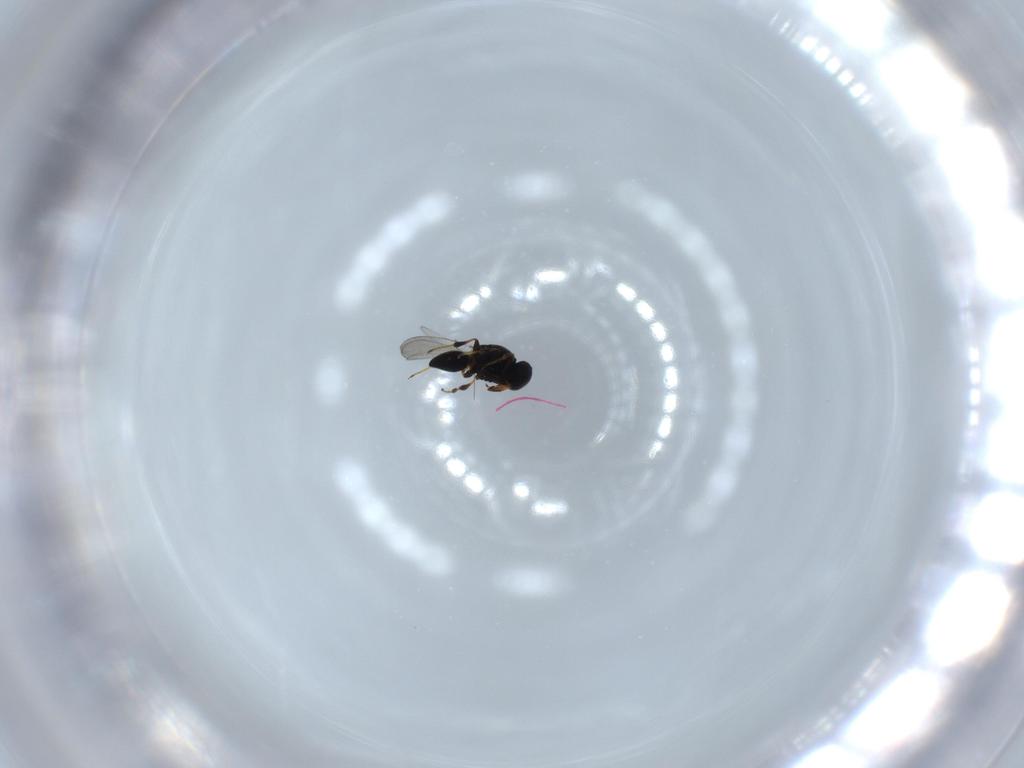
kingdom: Animalia
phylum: Arthropoda
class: Insecta
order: Hymenoptera
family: Platygastridae
